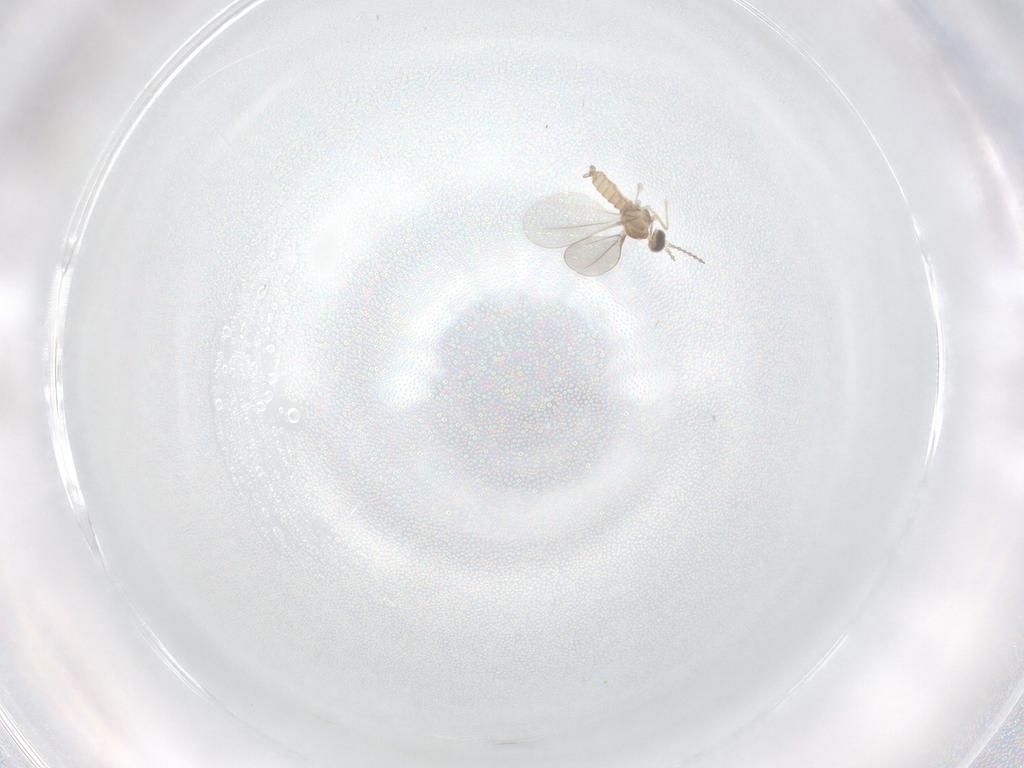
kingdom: Animalia
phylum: Arthropoda
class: Insecta
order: Diptera
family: Cecidomyiidae
